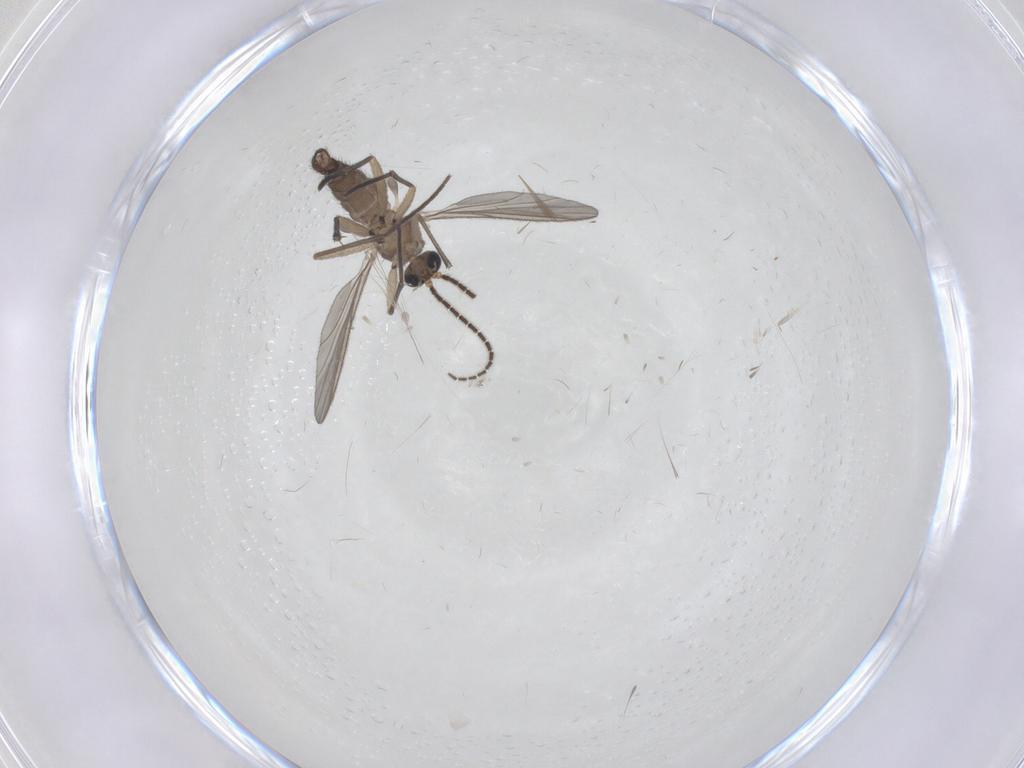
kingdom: Animalia
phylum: Arthropoda
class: Insecta
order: Diptera
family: Sciaridae
